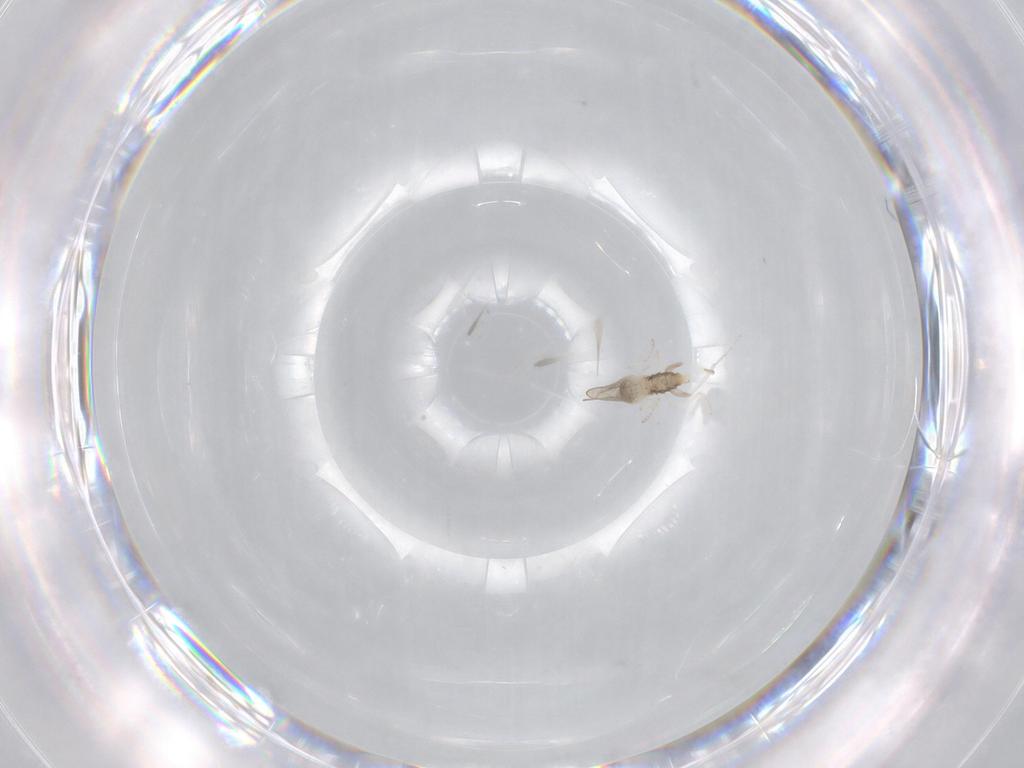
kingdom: Animalia
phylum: Arthropoda
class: Insecta
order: Diptera
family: Cecidomyiidae
